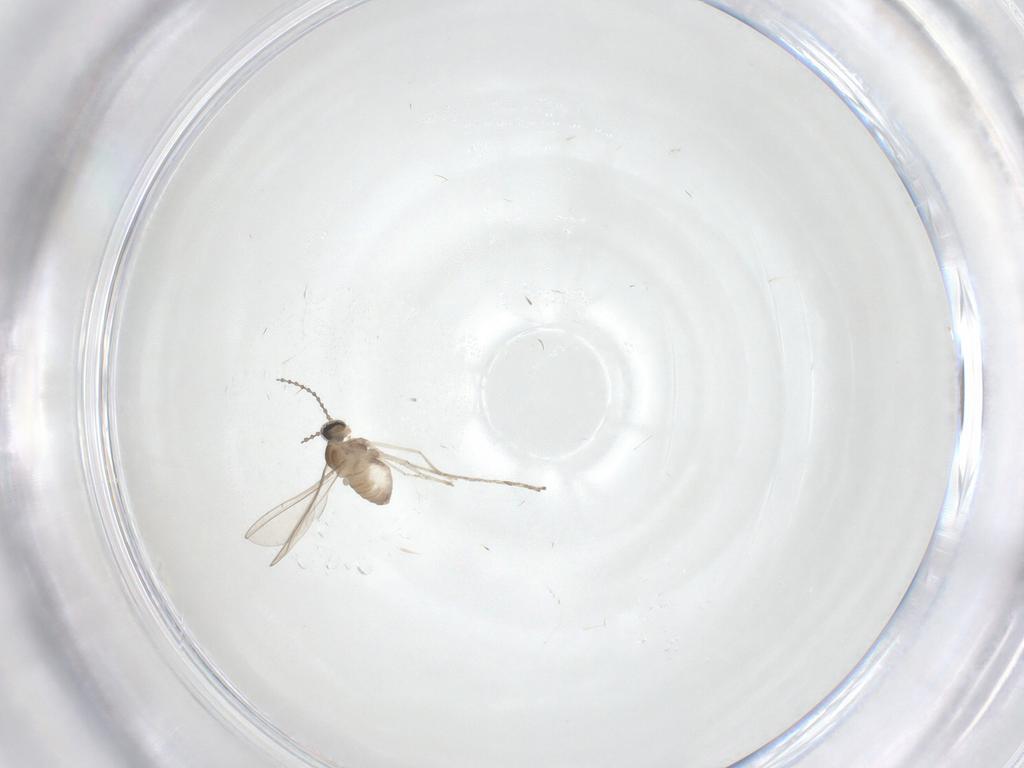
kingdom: Animalia
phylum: Arthropoda
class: Insecta
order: Diptera
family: Cecidomyiidae
